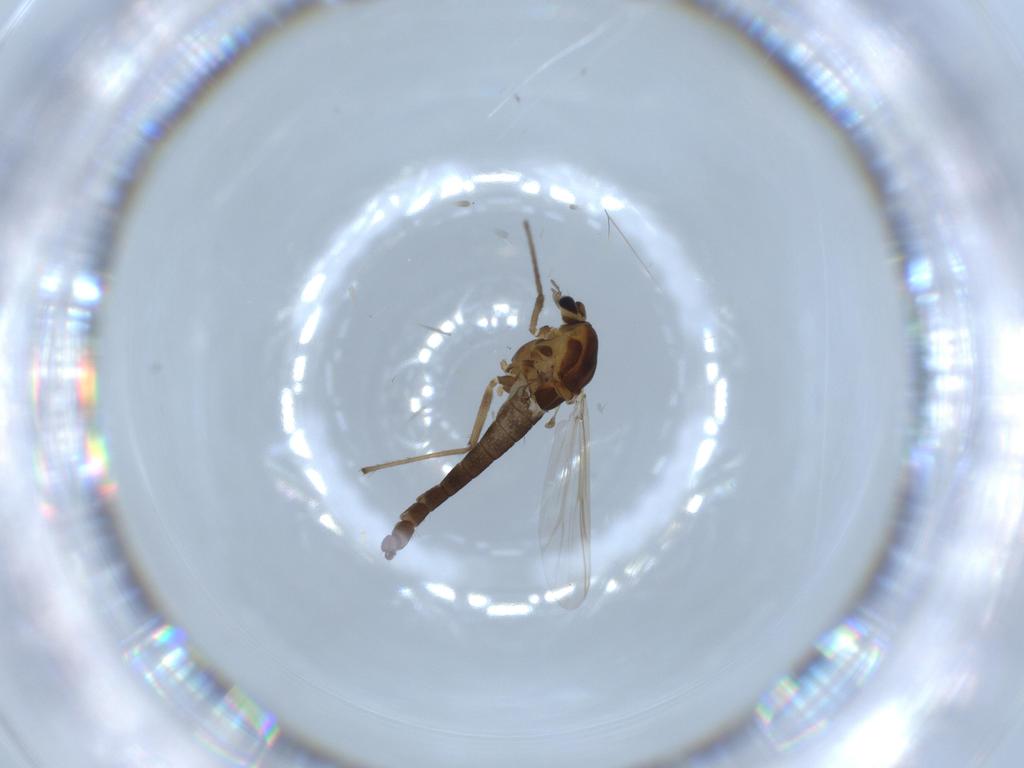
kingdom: Animalia
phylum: Arthropoda
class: Insecta
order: Diptera
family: Chironomidae
